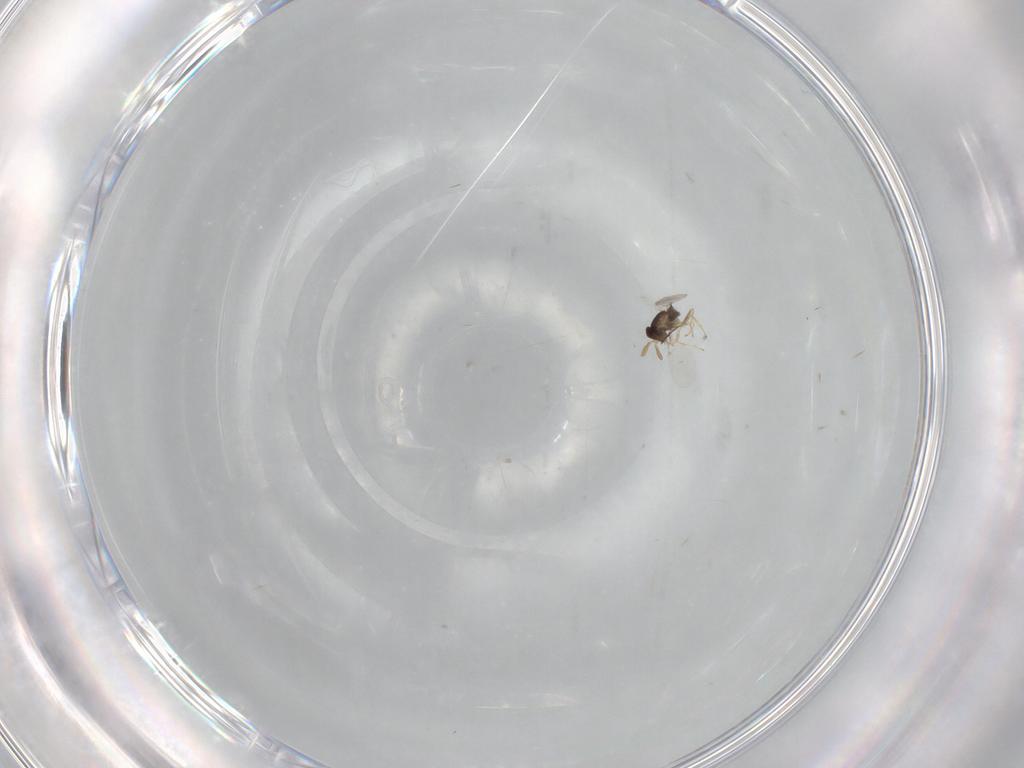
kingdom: Animalia
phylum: Arthropoda
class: Insecta
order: Hymenoptera
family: Encyrtidae
